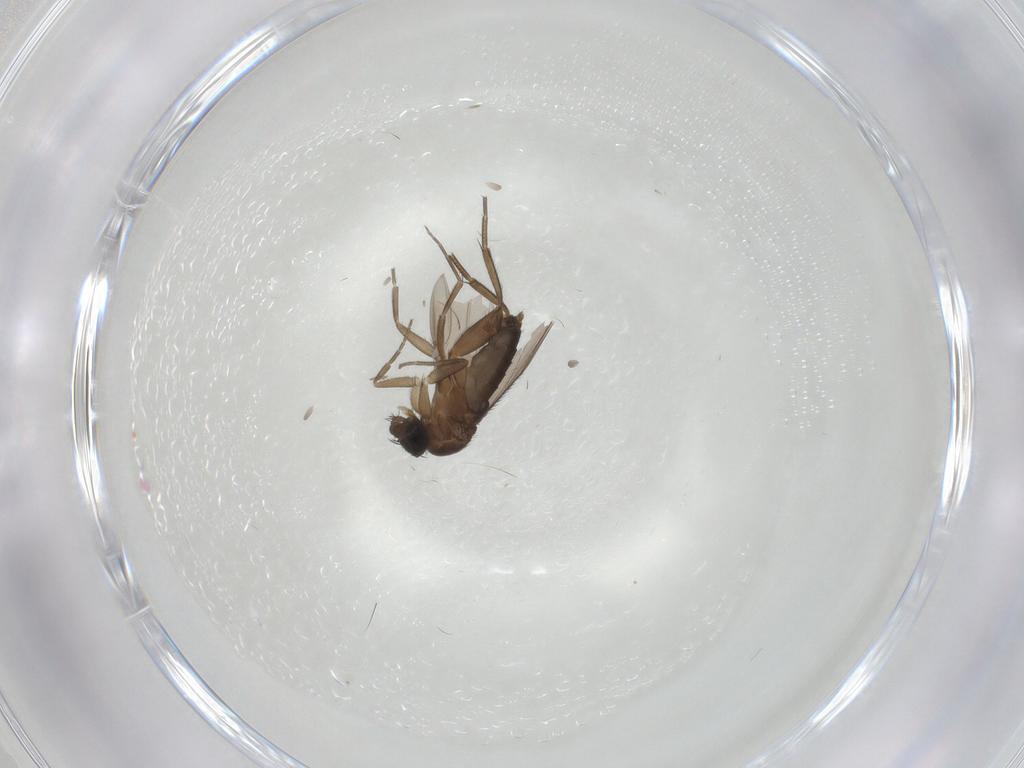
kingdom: Animalia
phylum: Arthropoda
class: Insecta
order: Diptera
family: Phoridae
